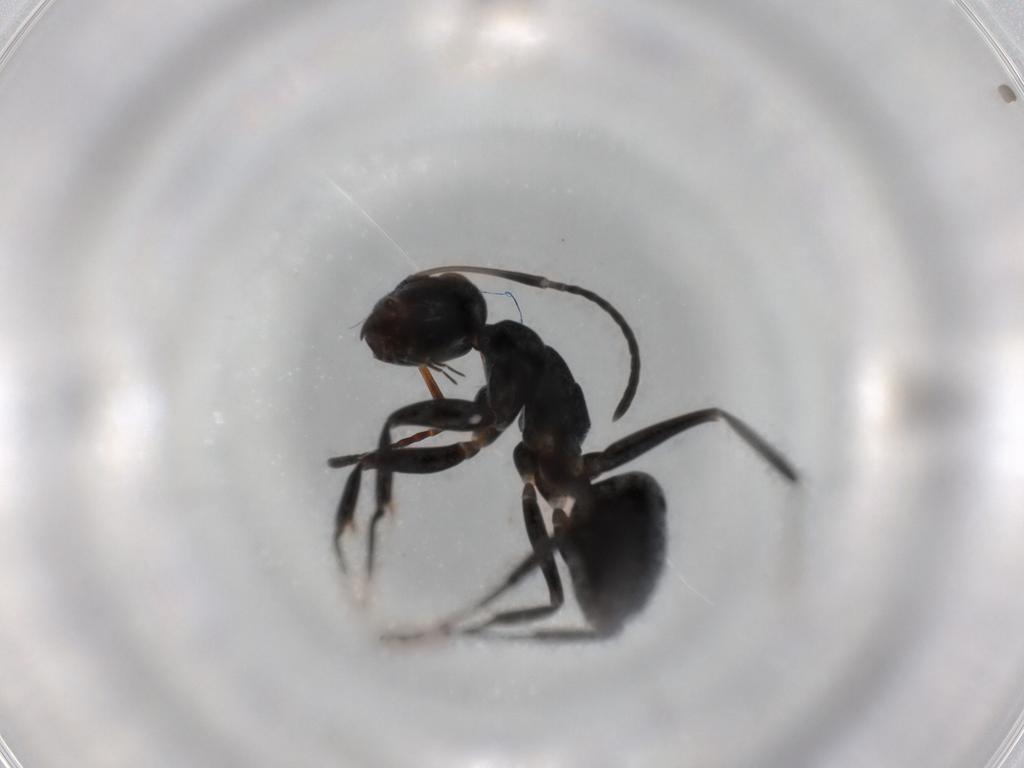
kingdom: Animalia
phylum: Arthropoda
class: Insecta
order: Hymenoptera
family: Formicidae
